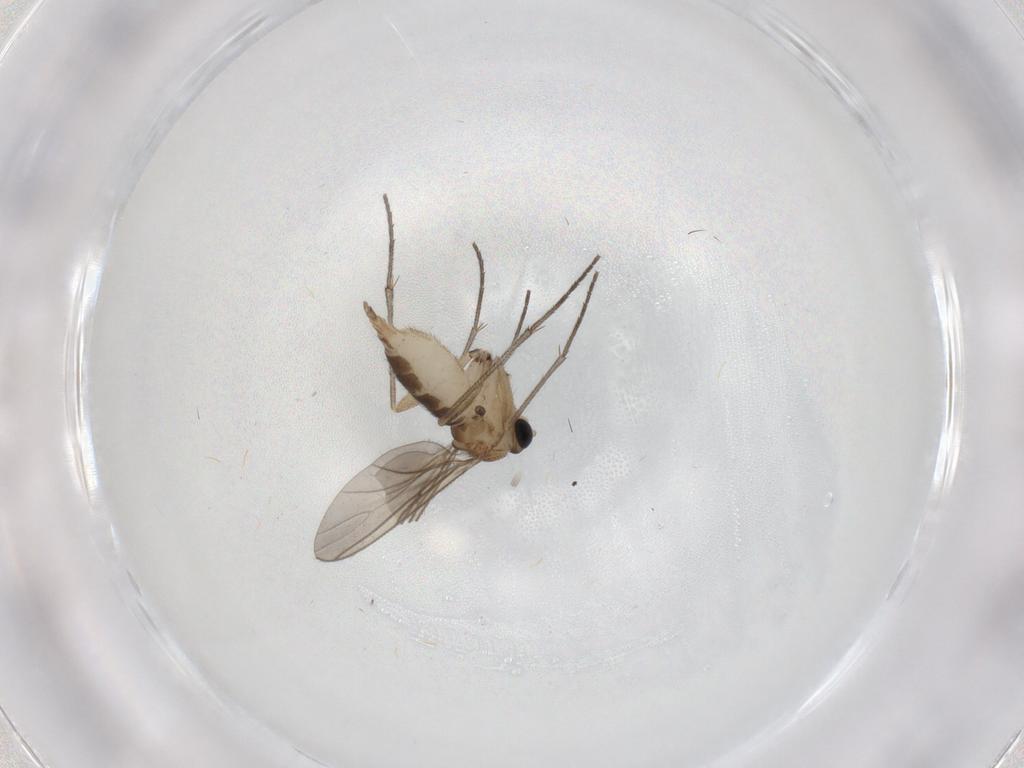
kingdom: Animalia
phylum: Arthropoda
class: Insecta
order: Diptera
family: Sciaridae
